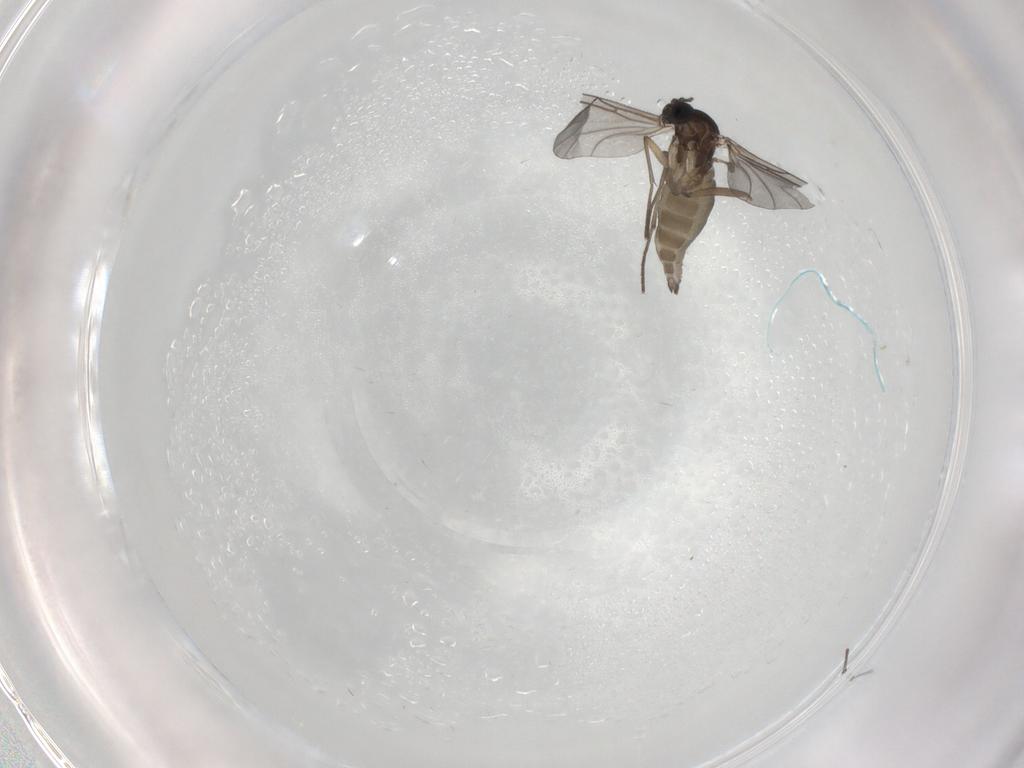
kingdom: Animalia
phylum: Arthropoda
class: Insecta
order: Diptera
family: Sciaridae
